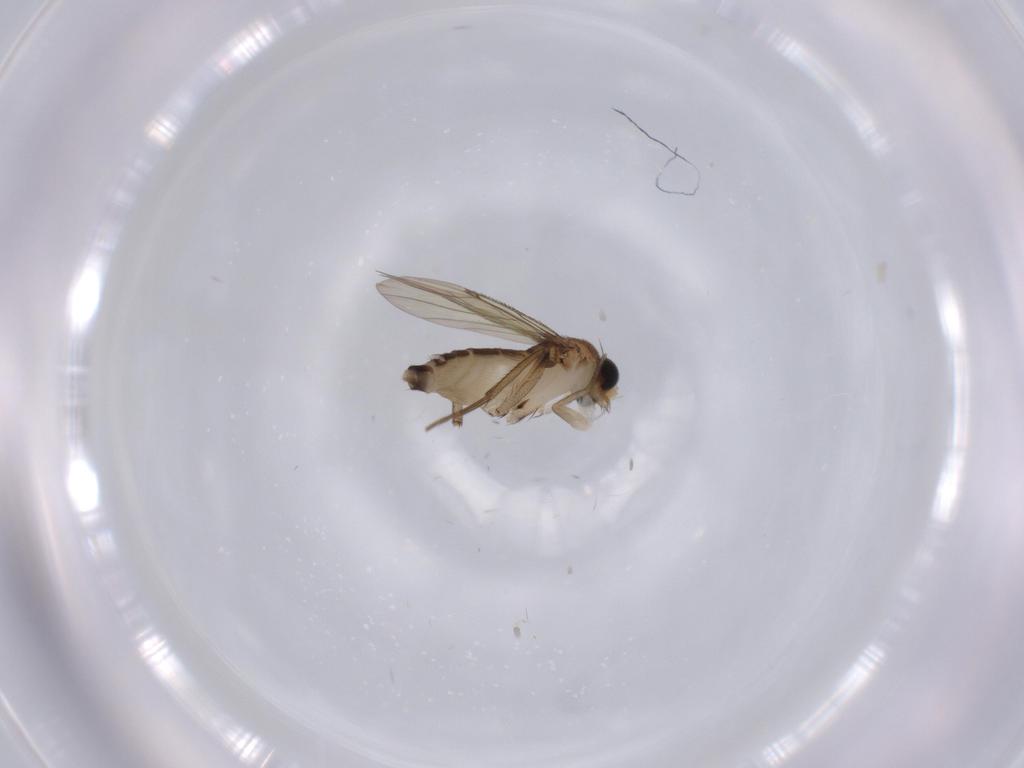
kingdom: Animalia
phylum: Arthropoda
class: Insecta
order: Diptera
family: Phoridae
